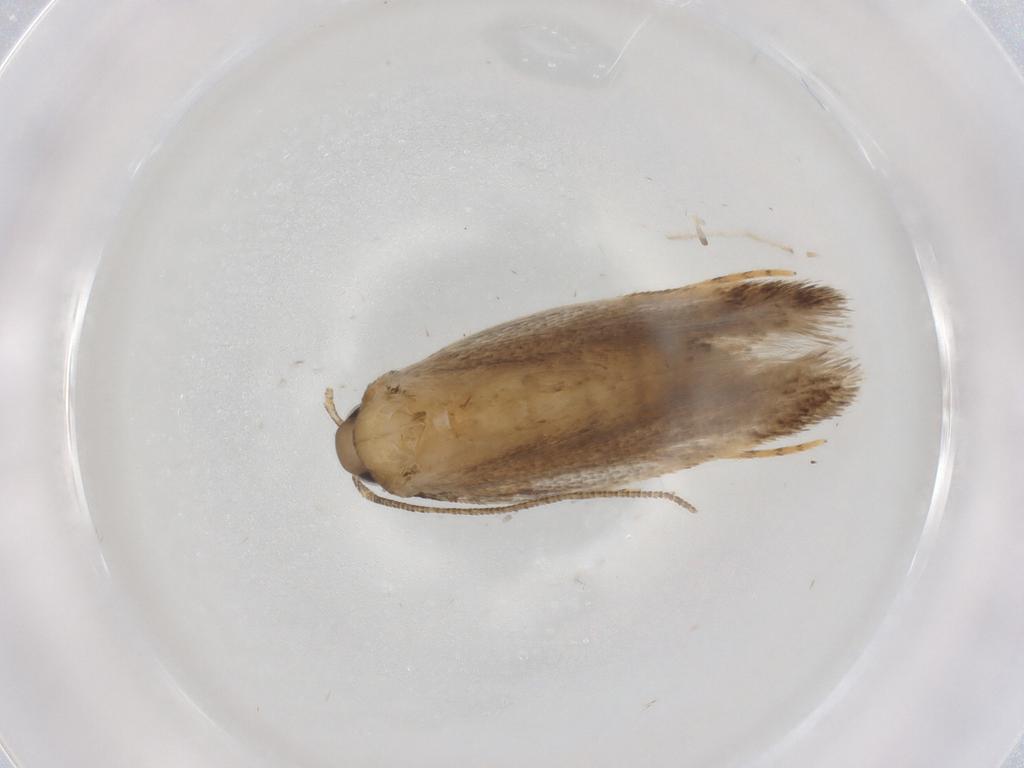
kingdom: Animalia
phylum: Arthropoda
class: Insecta
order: Lepidoptera
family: Autostichidae
